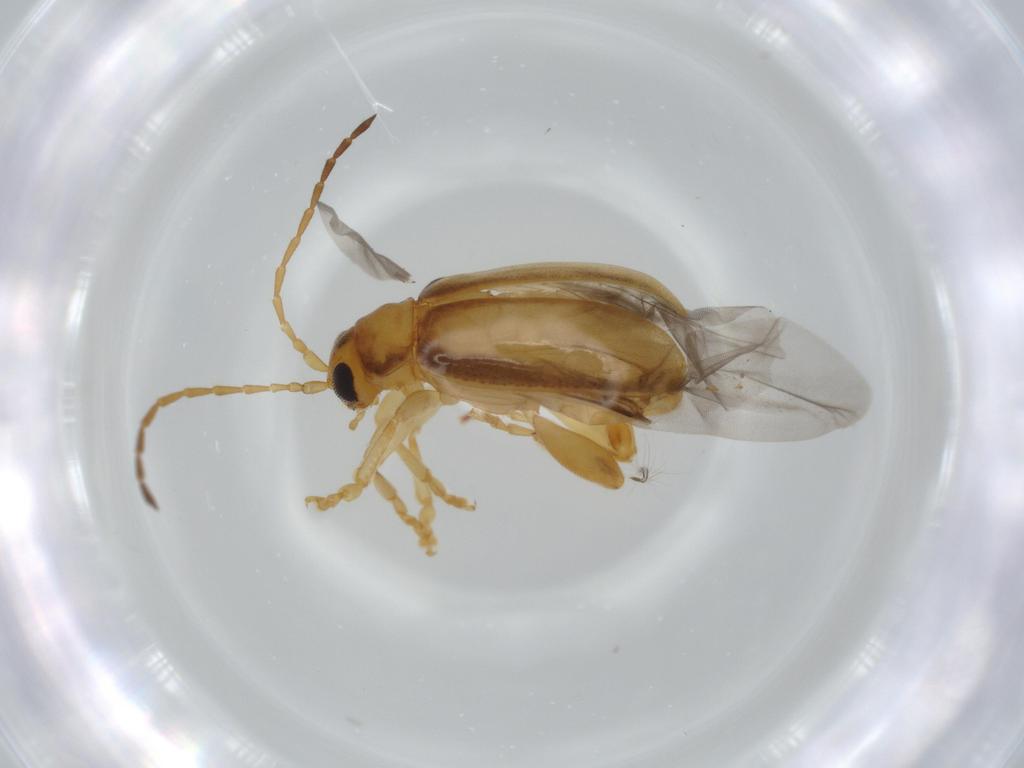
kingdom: Animalia
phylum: Arthropoda
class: Insecta
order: Coleoptera
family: Chrysomelidae
